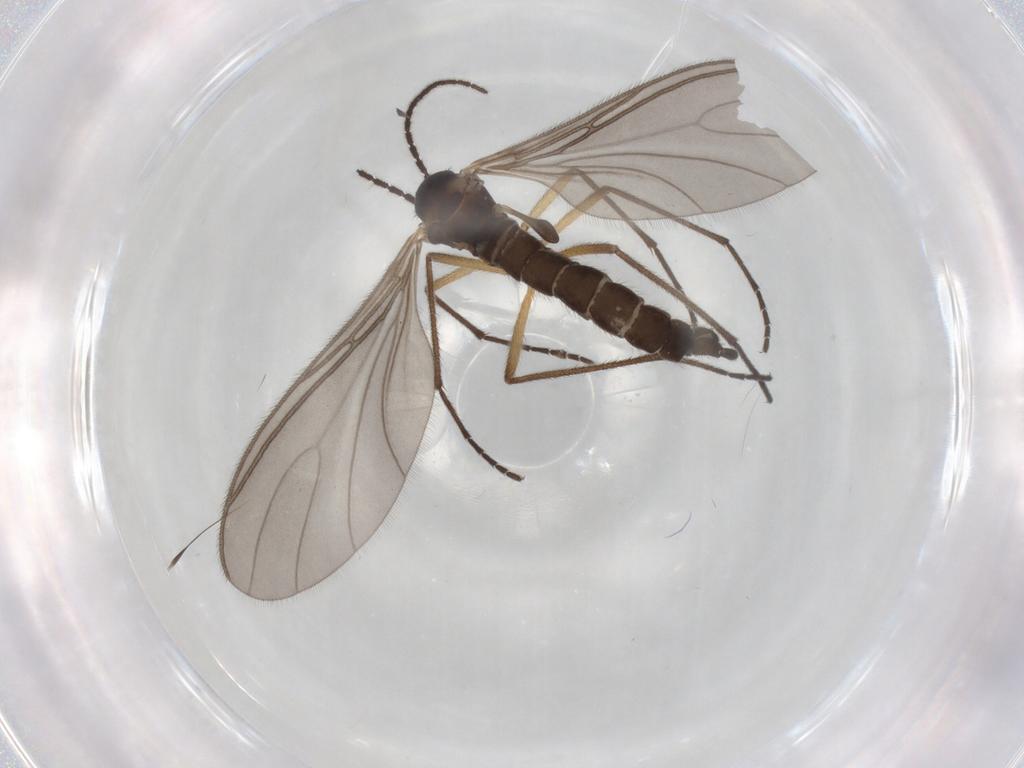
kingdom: Animalia
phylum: Arthropoda
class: Insecta
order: Diptera
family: Sciaridae
